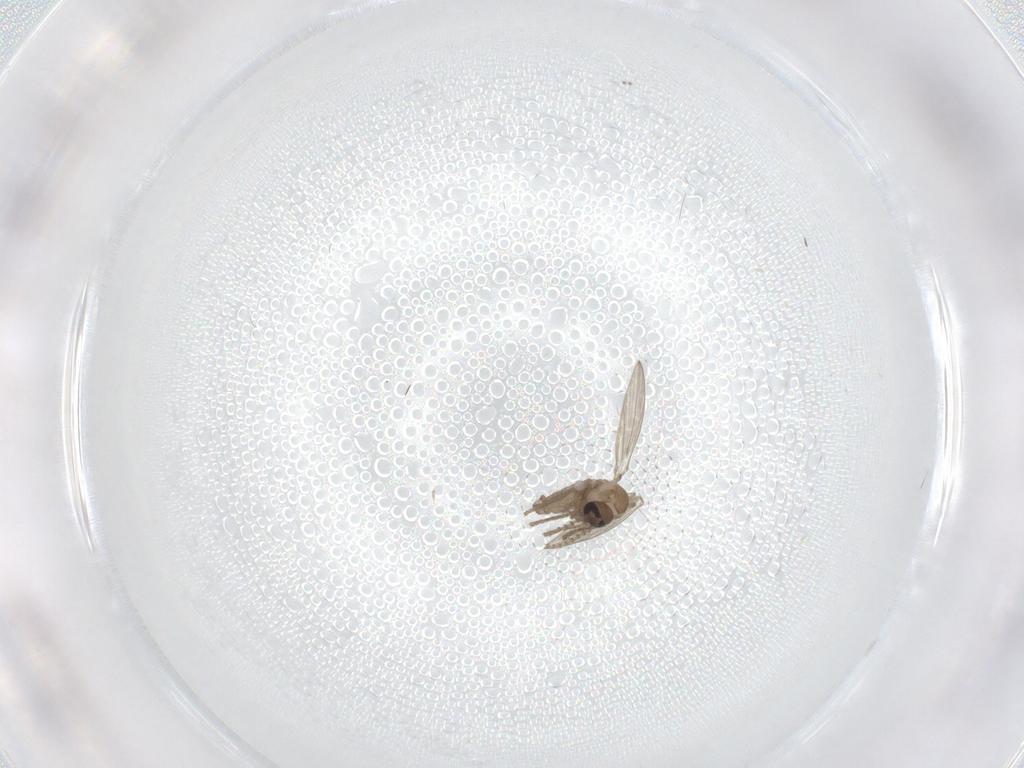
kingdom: Animalia
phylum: Arthropoda
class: Insecta
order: Diptera
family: Psychodidae
